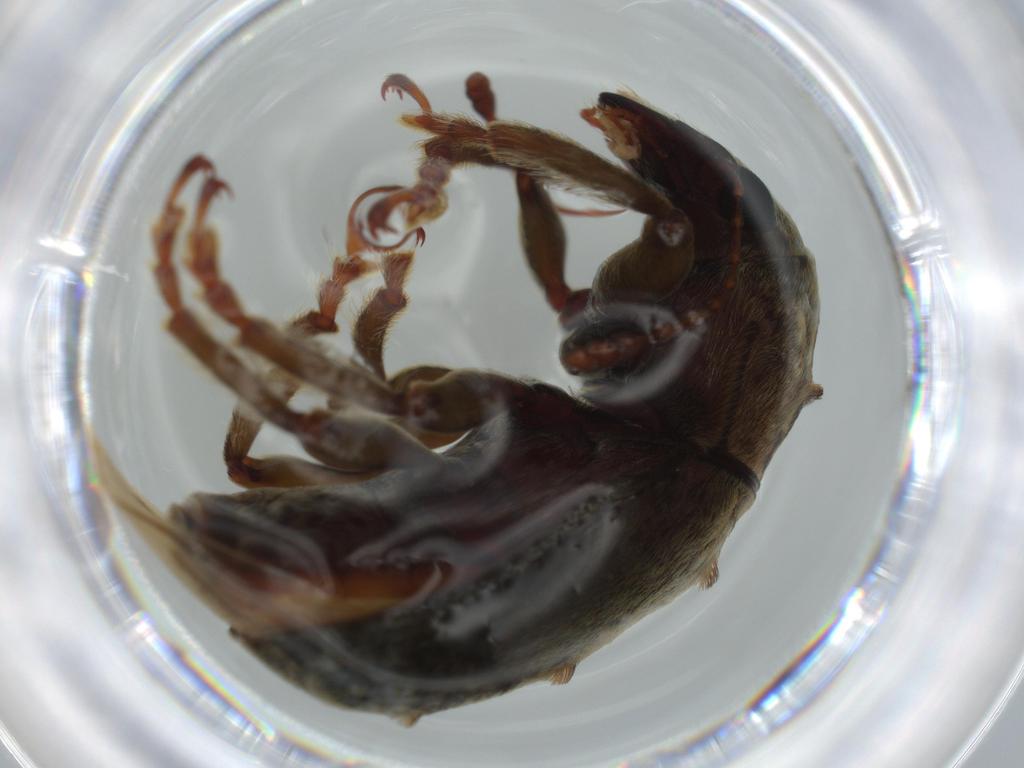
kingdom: Animalia
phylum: Arthropoda
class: Insecta
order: Coleoptera
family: Anthribidae
